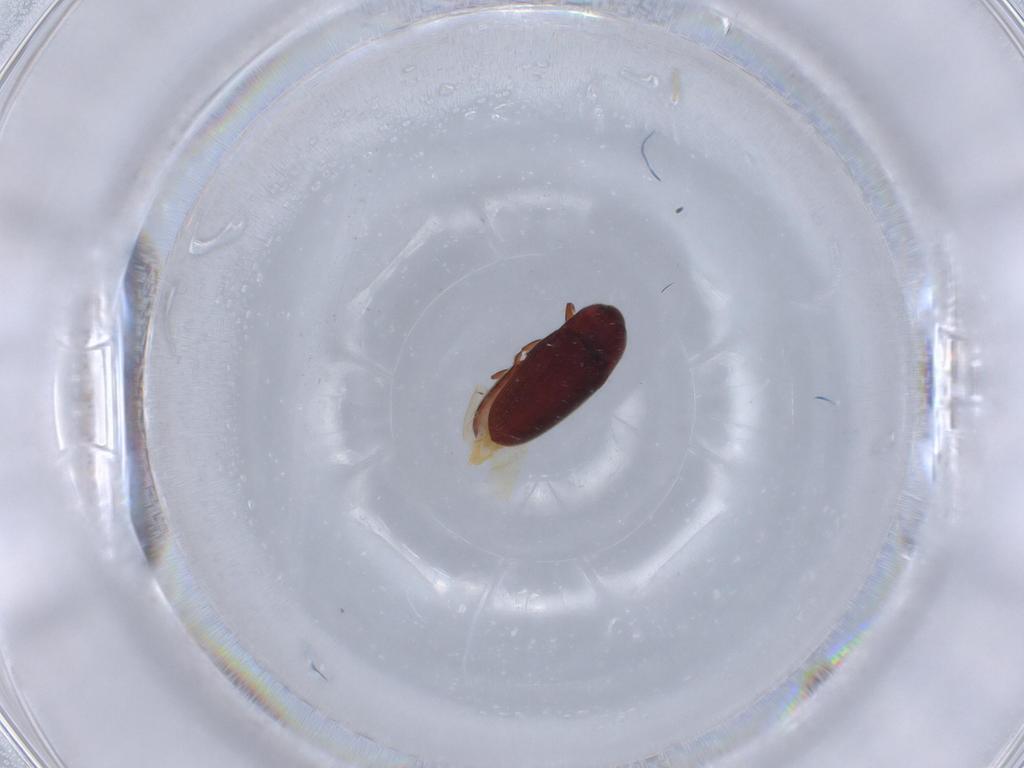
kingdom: Animalia
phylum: Arthropoda
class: Insecta
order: Coleoptera
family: Throscidae
